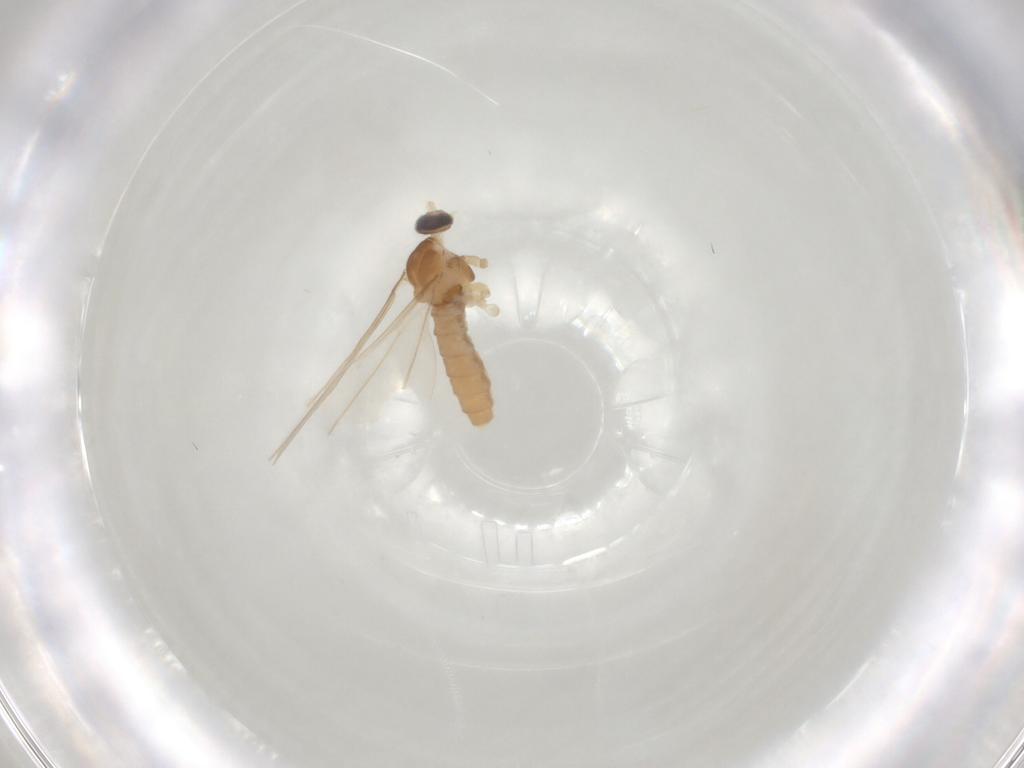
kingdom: Animalia
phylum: Arthropoda
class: Insecta
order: Diptera
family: Cecidomyiidae
